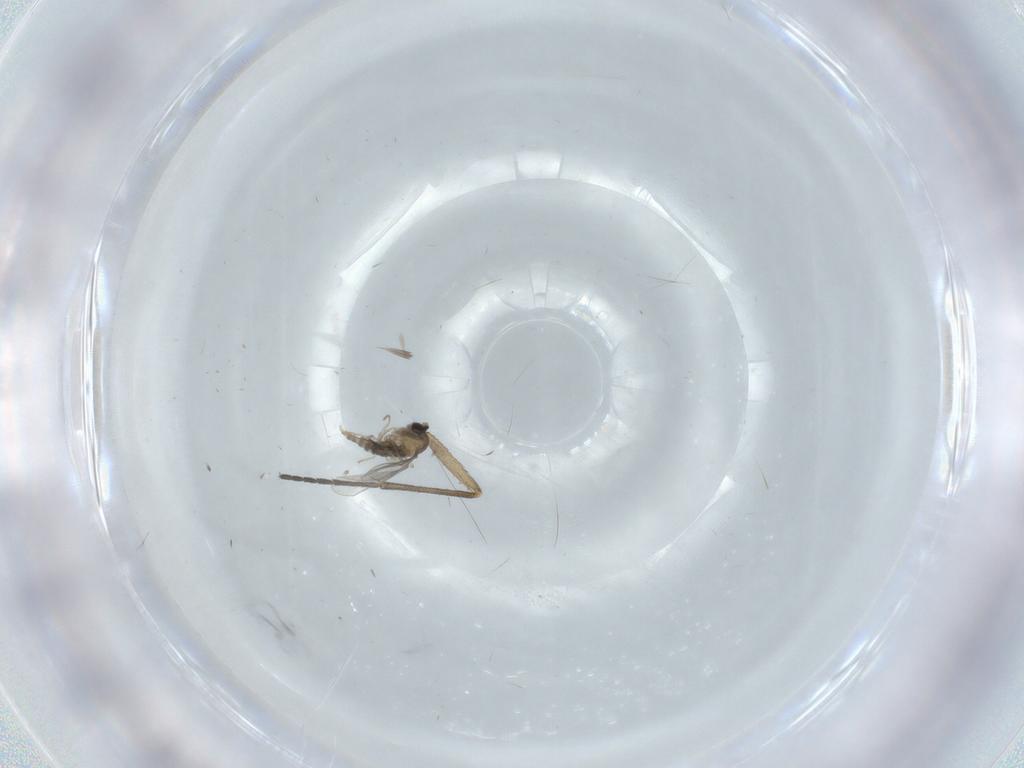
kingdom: Animalia
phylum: Arthropoda
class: Insecta
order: Diptera
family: Cecidomyiidae
